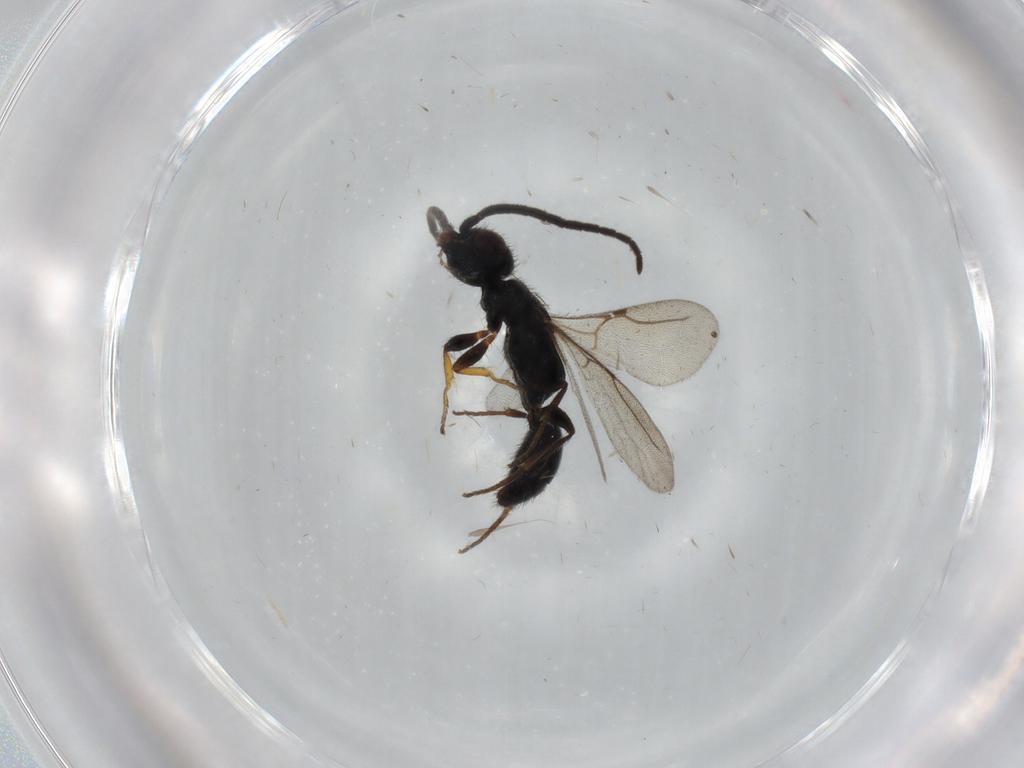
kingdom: Animalia
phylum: Arthropoda
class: Insecta
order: Hymenoptera
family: Bethylidae
